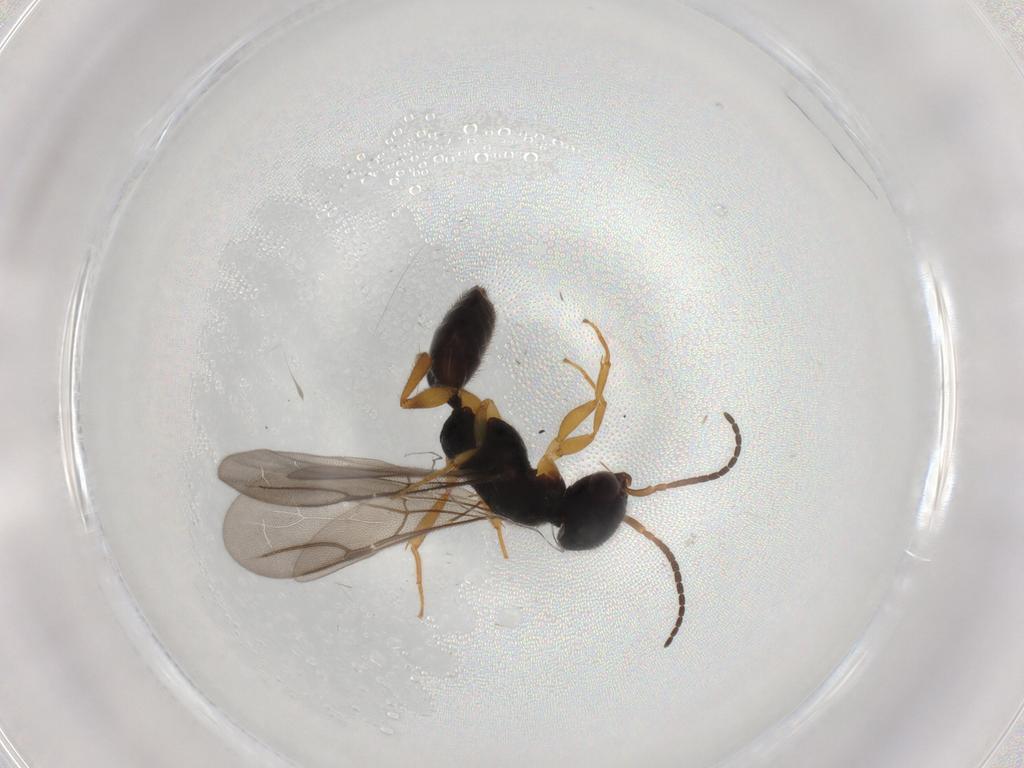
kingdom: Animalia
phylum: Arthropoda
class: Insecta
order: Hymenoptera
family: Bethylidae
